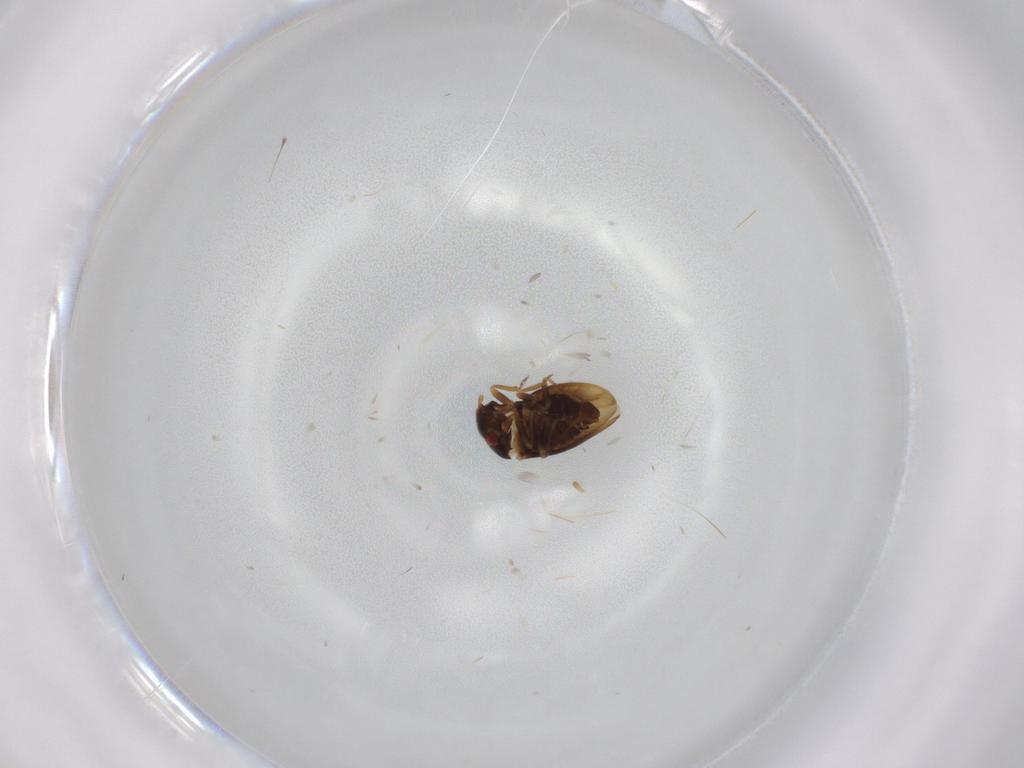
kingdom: Animalia
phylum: Arthropoda
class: Insecta
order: Hemiptera
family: Schizopteridae
